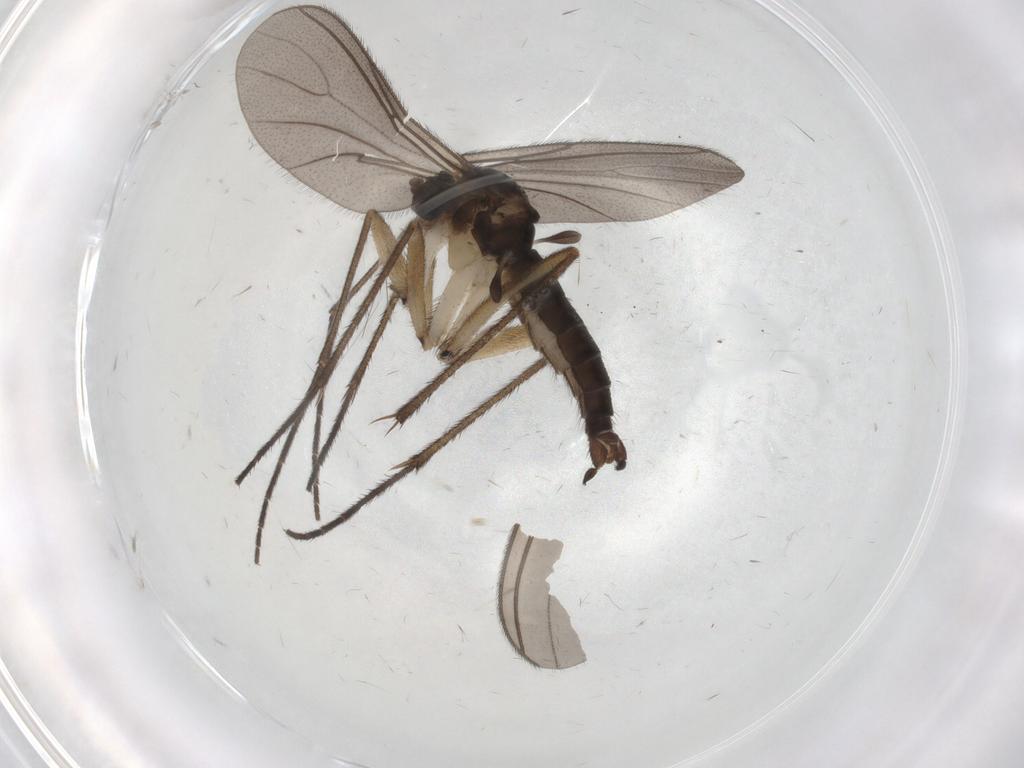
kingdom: Animalia
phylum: Arthropoda
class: Insecta
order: Diptera
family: Sciaridae
